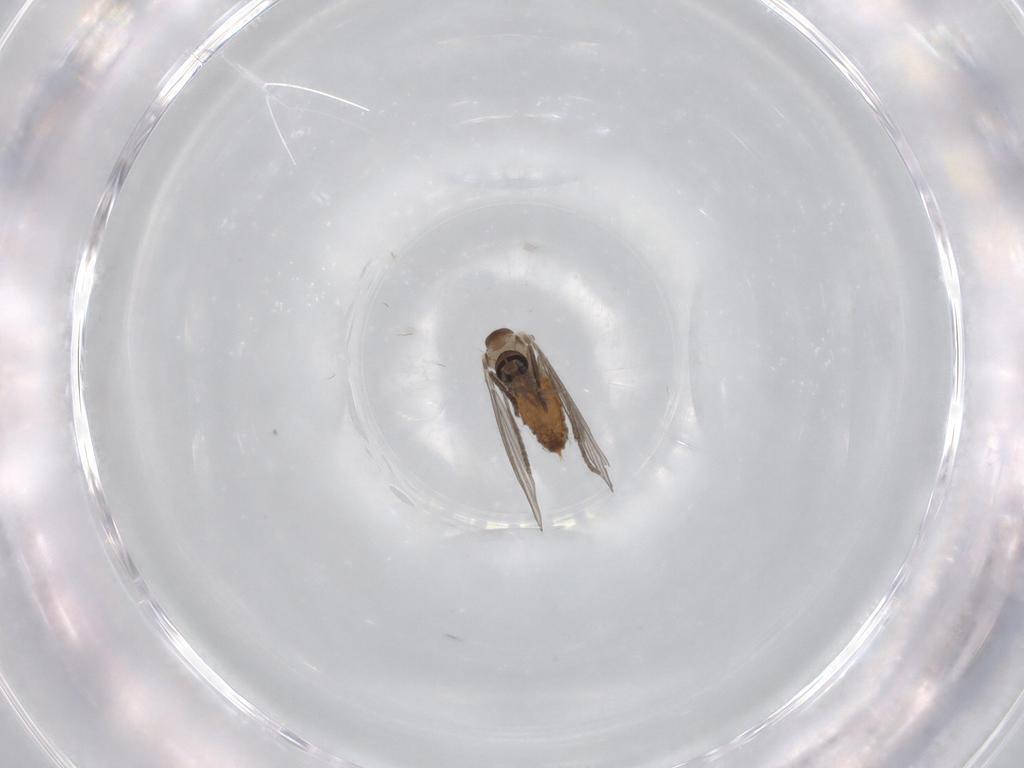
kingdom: Animalia
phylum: Arthropoda
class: Insecta
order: Diptera
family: Psychodidae
